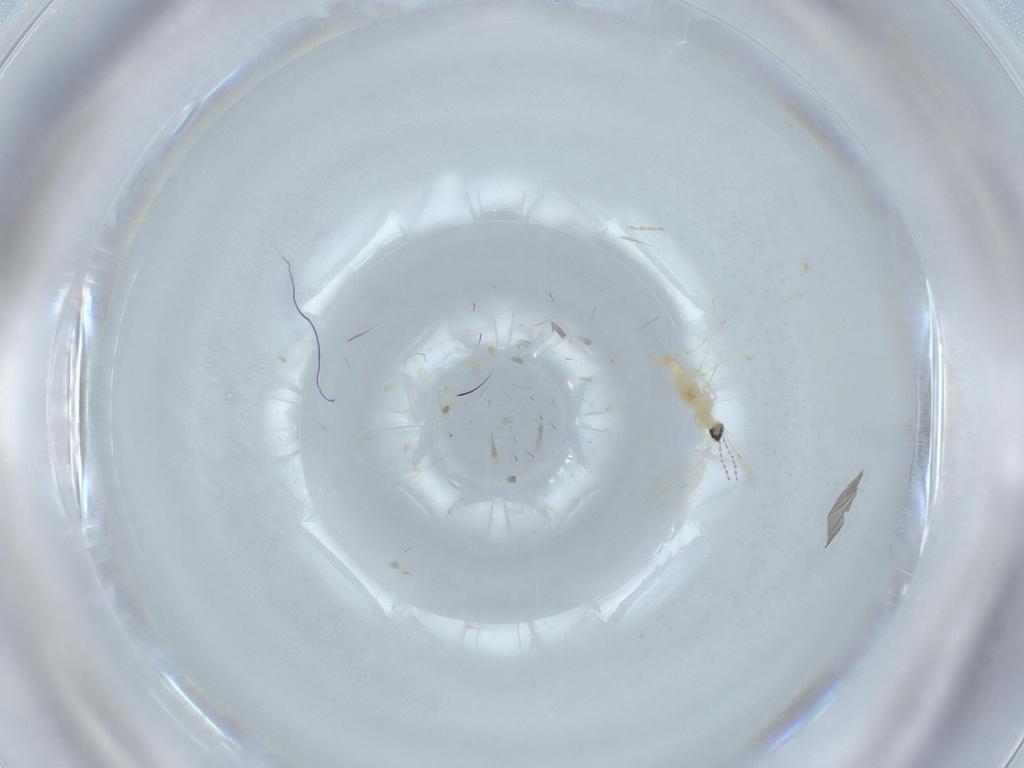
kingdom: Animalia
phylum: Arthropoda
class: Insecta
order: Diptera
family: Cecidomyiidae
